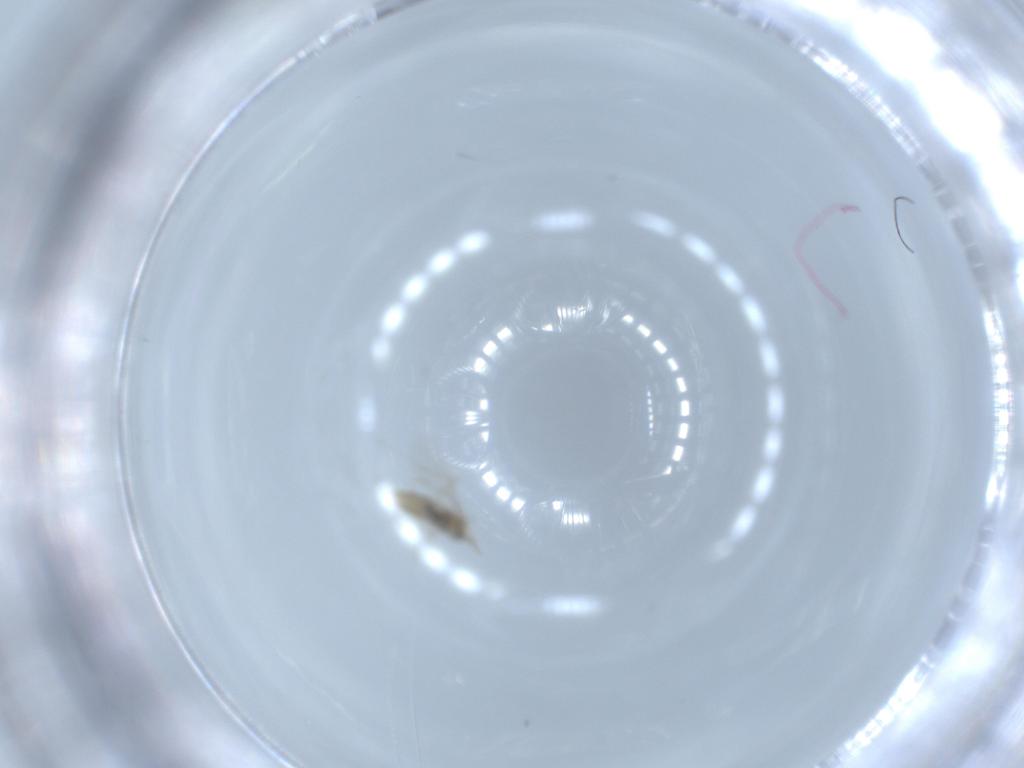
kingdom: Animalia
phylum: Arthropoda
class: Insecta
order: Diptera
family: Cecidomyiidae
